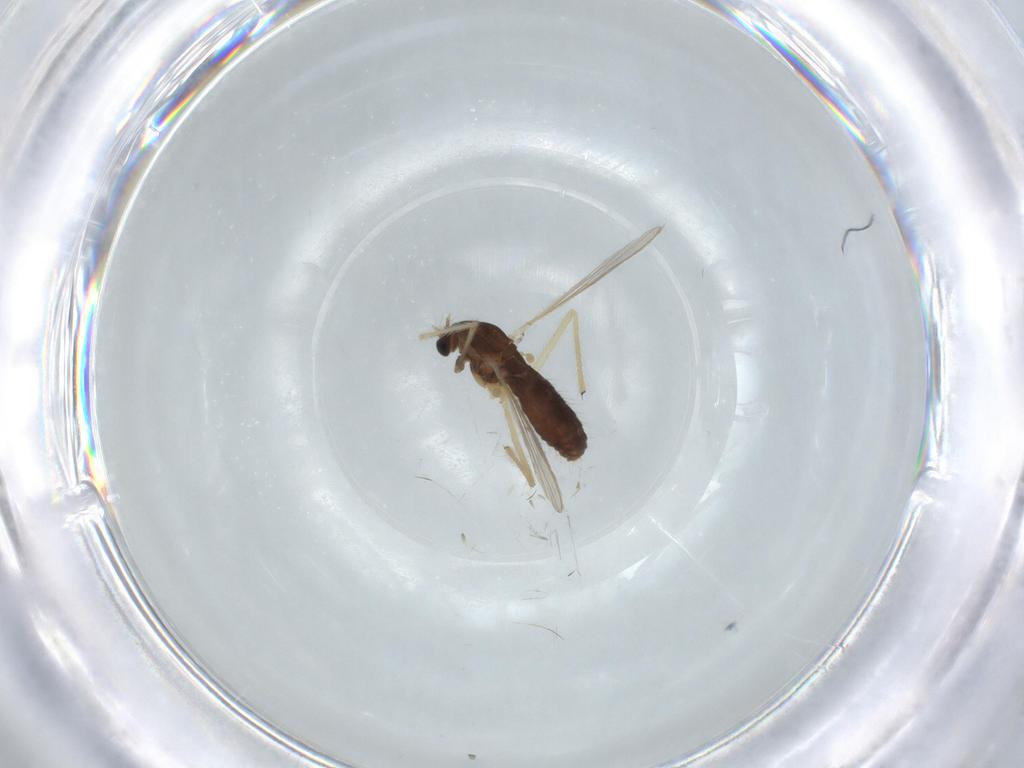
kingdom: Animalia
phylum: Arthropoda
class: Insecta
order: Diptera
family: Chironomidae
